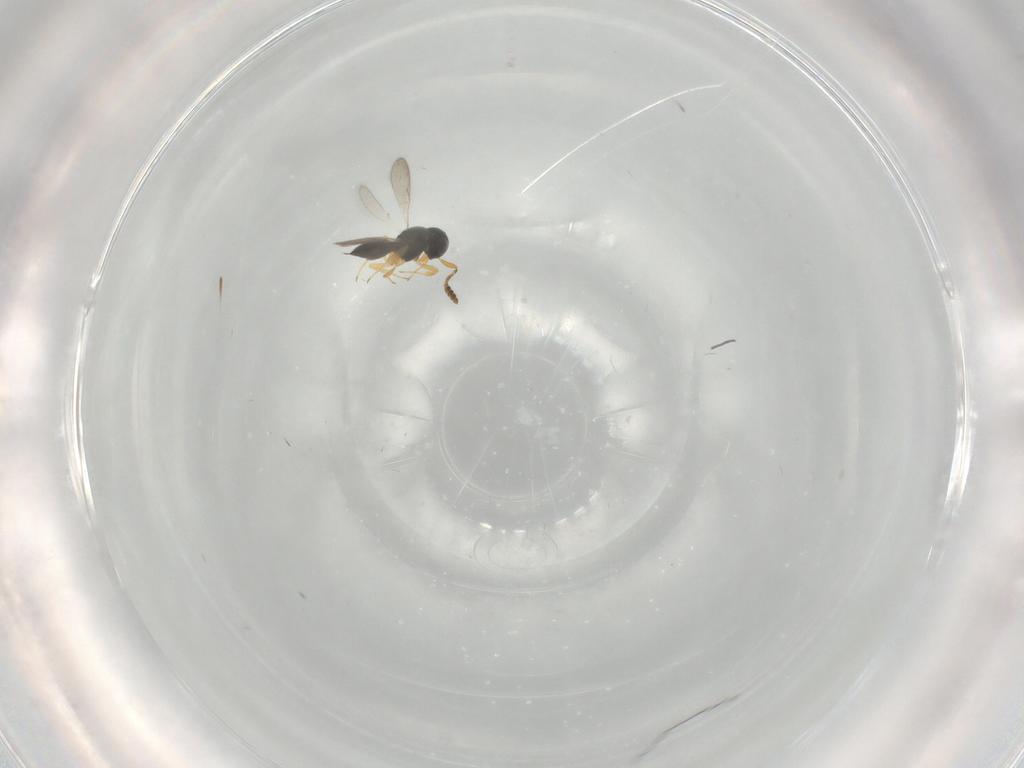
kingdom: Animalia
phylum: Arthropoda
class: Insecta
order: Hymenoptera
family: Scelionidae
